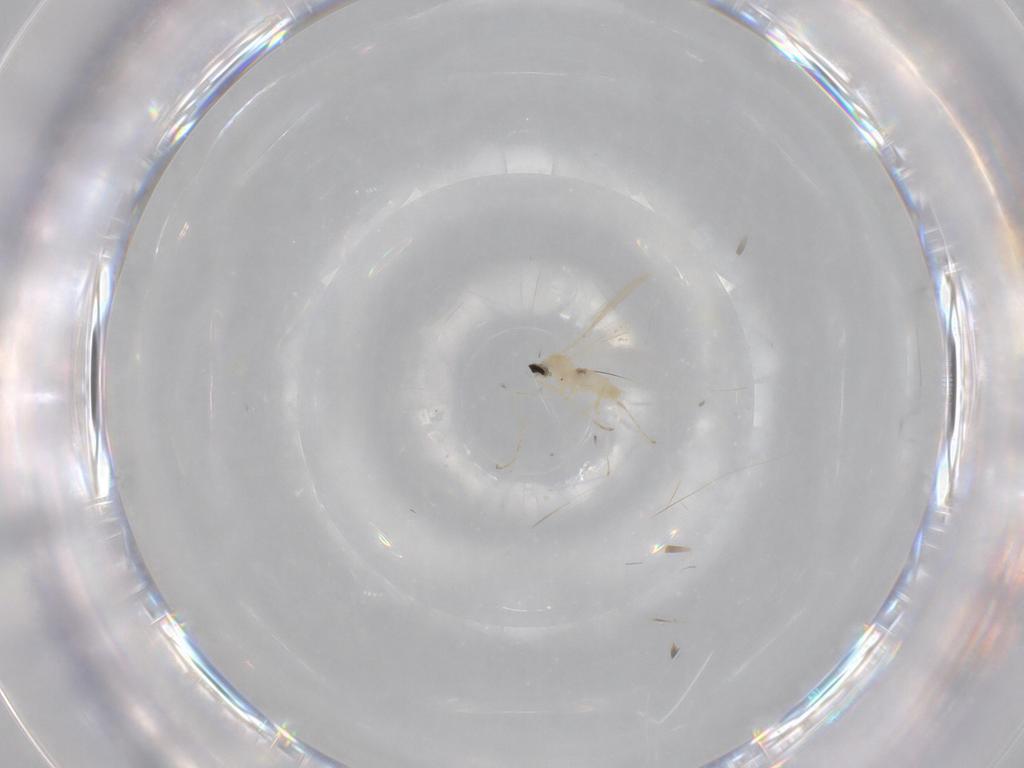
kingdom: Animalia
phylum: Arthropoda
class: Insecta
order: Diptera
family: Cecidomyiidae
